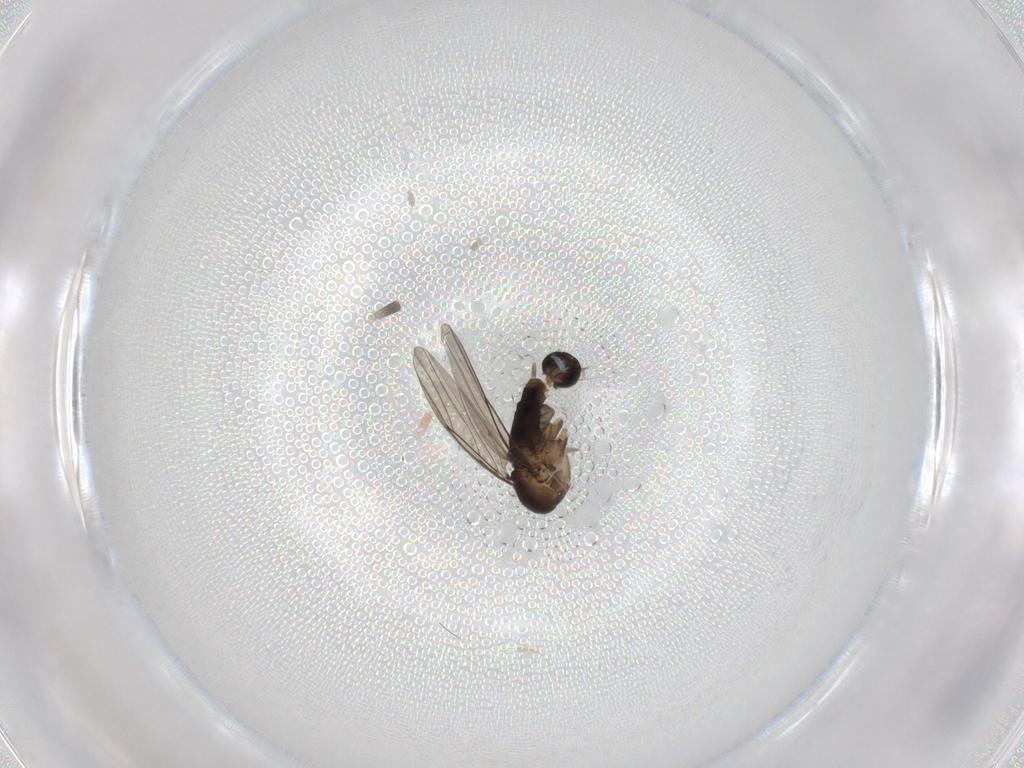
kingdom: Animalia
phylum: Arthropoda
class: Insecta
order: Diptera
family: Phoridae
